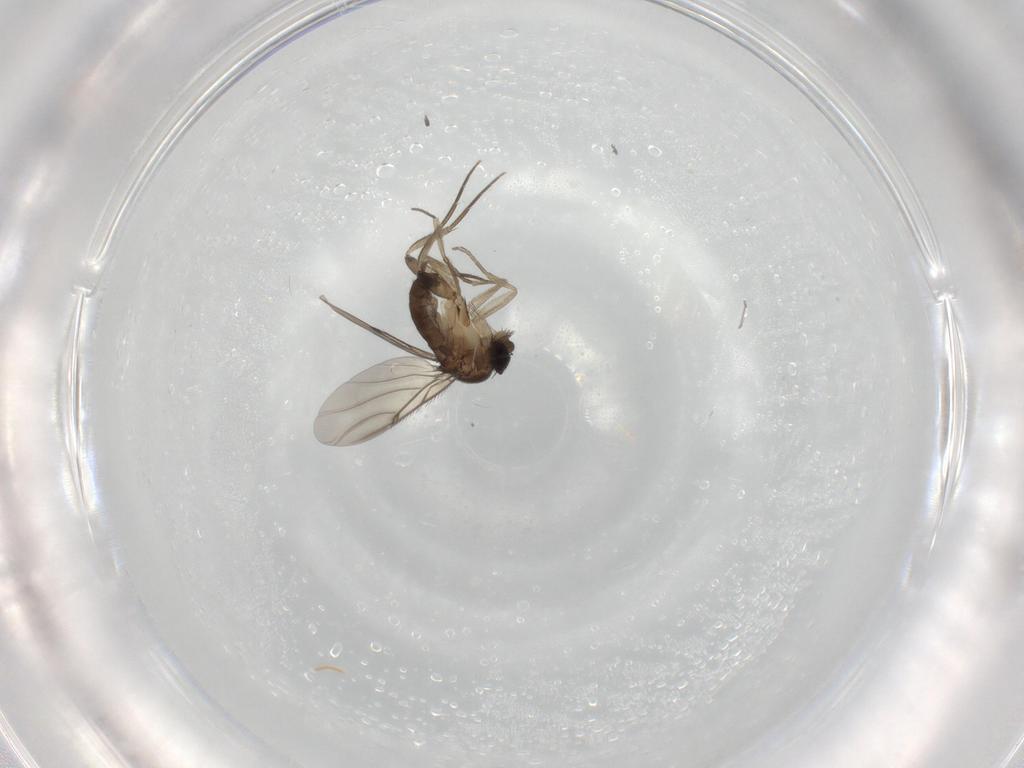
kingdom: Animalia
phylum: Arthropoda
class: Insecta
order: Diptera
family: Phoridae
